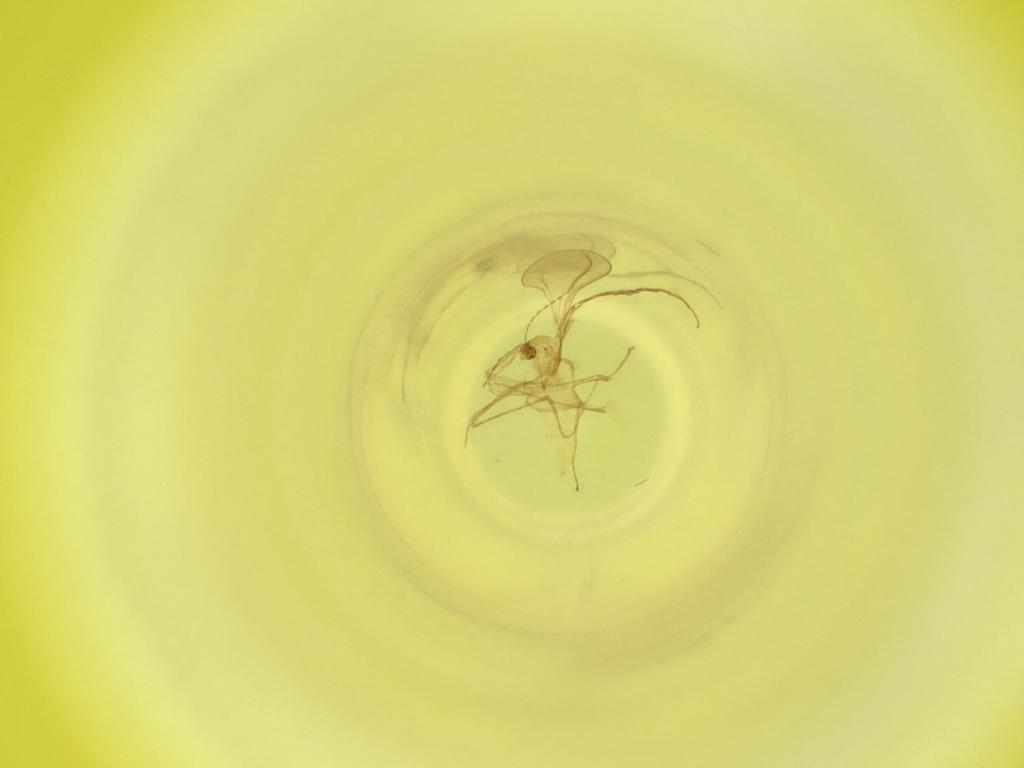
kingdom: Animalia
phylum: Arthropoda
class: Insecta
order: Diptera
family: Cecidomyiidae
